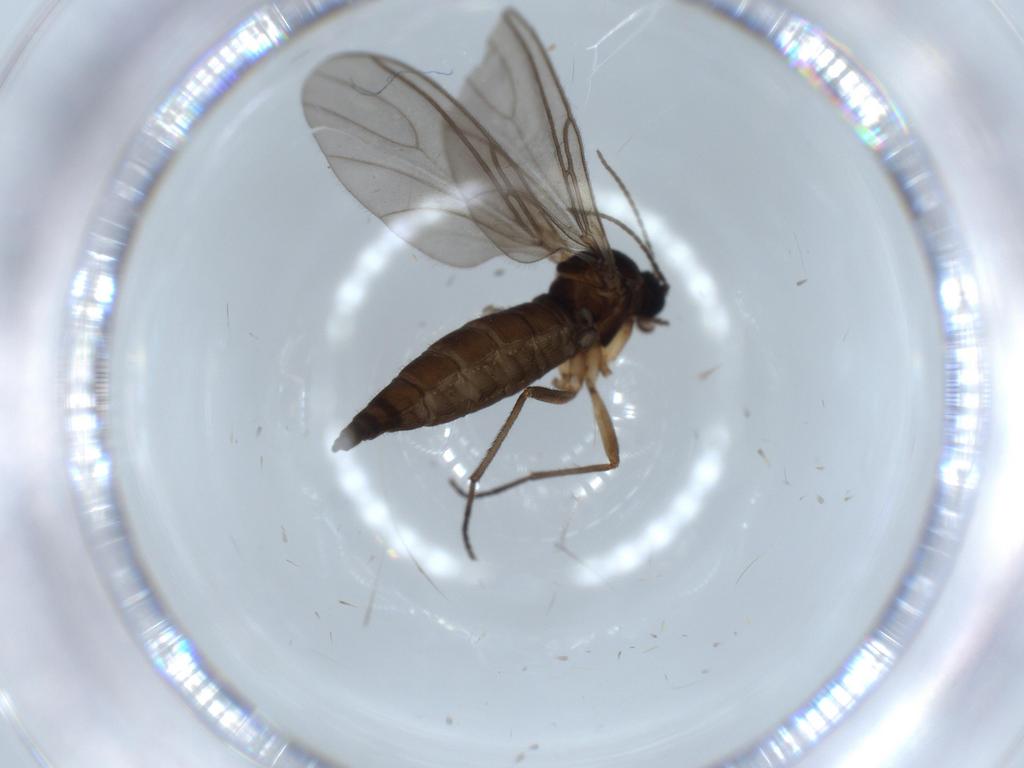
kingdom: Animalia
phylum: Arthropoda
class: Insecta
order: Diptera
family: Sciaridae
